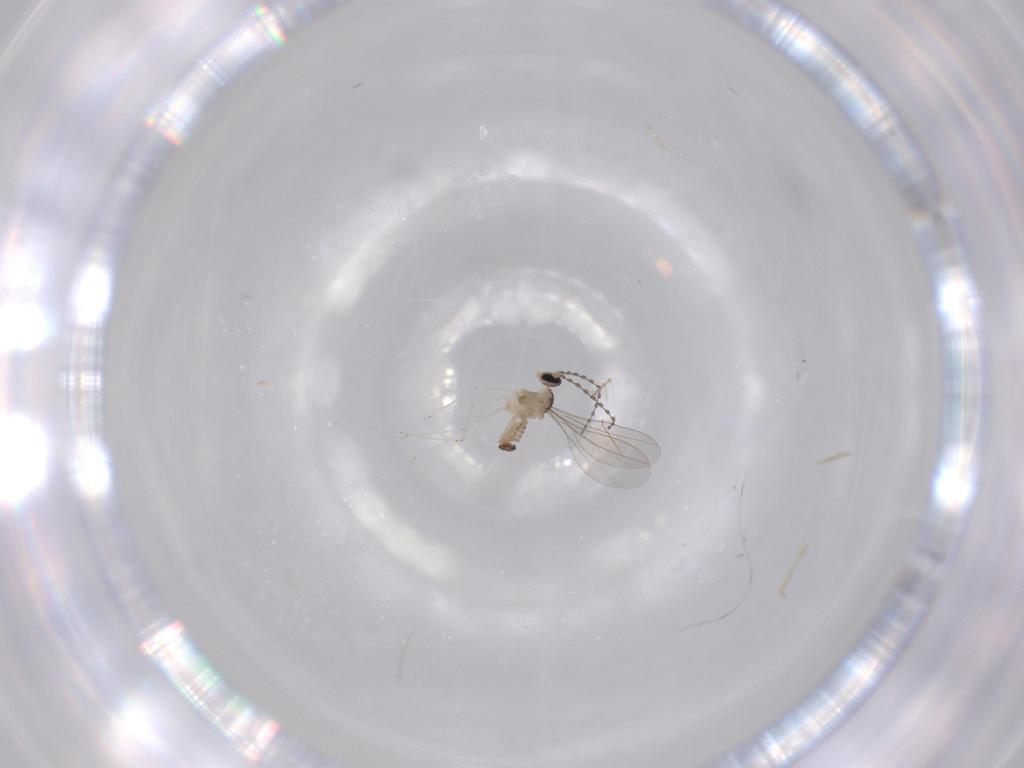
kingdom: Animalia
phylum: Arthropoda
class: Insecta
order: Diptera
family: Cecidomyiidae
